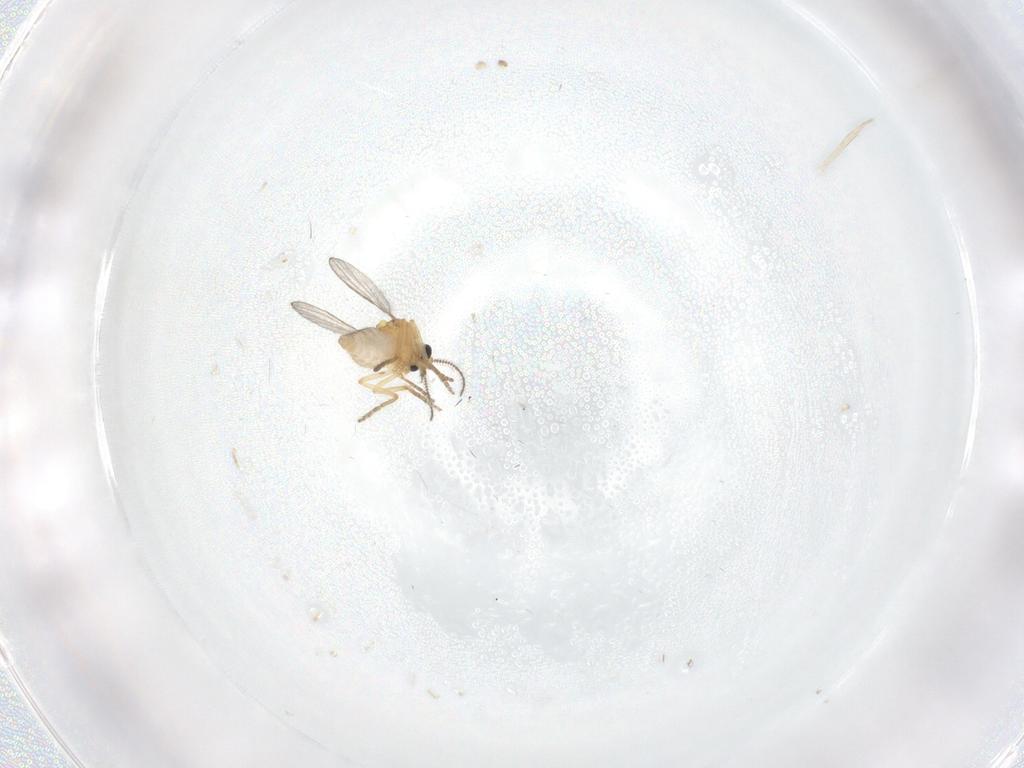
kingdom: Animalia
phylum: Arthropoda
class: Insecta
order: Diptera
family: Ceratopogonidae
